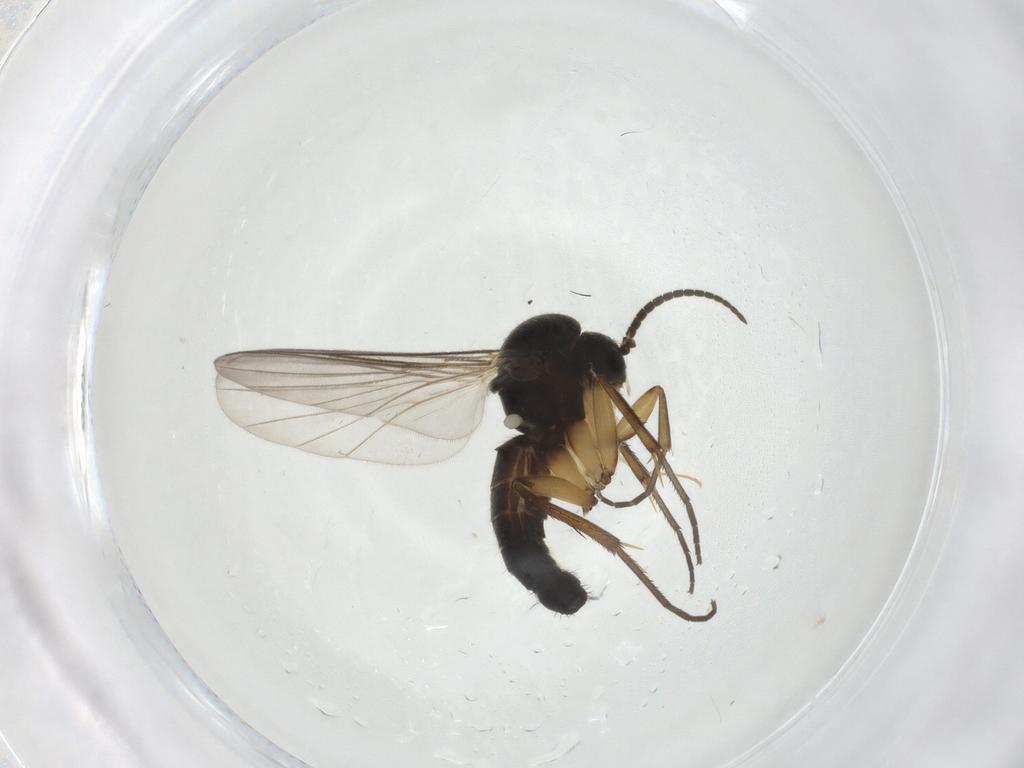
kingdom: Animalia
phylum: Arthropoda
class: Insecta
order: Diptera
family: Mycetophilidae
